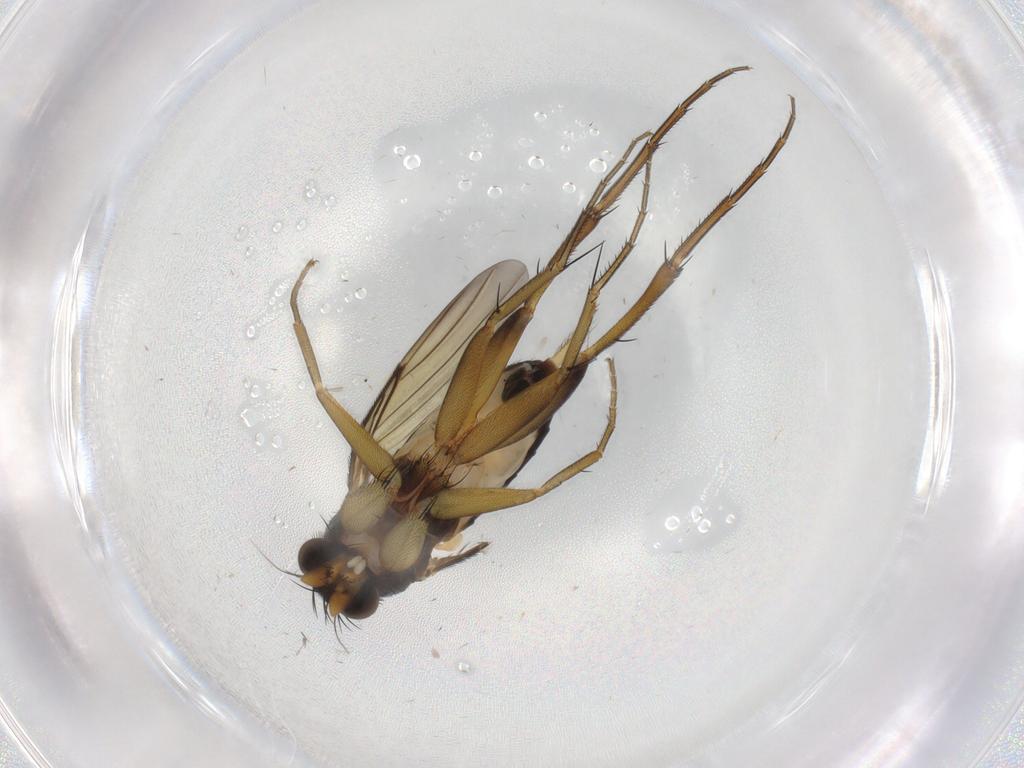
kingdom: Animalia
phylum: Arthropoda
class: Insecta
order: Diptera
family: Phoridae
